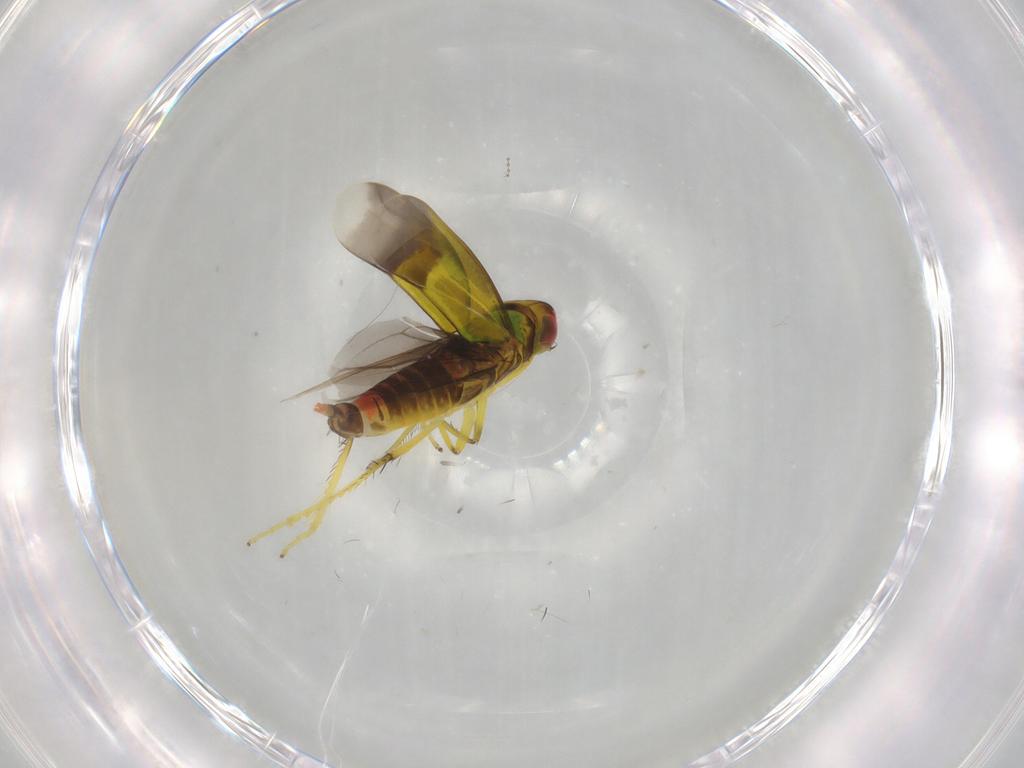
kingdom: Animalia
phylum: Arthropoda
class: Insecta
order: Hemiptera
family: Cicadellidae
